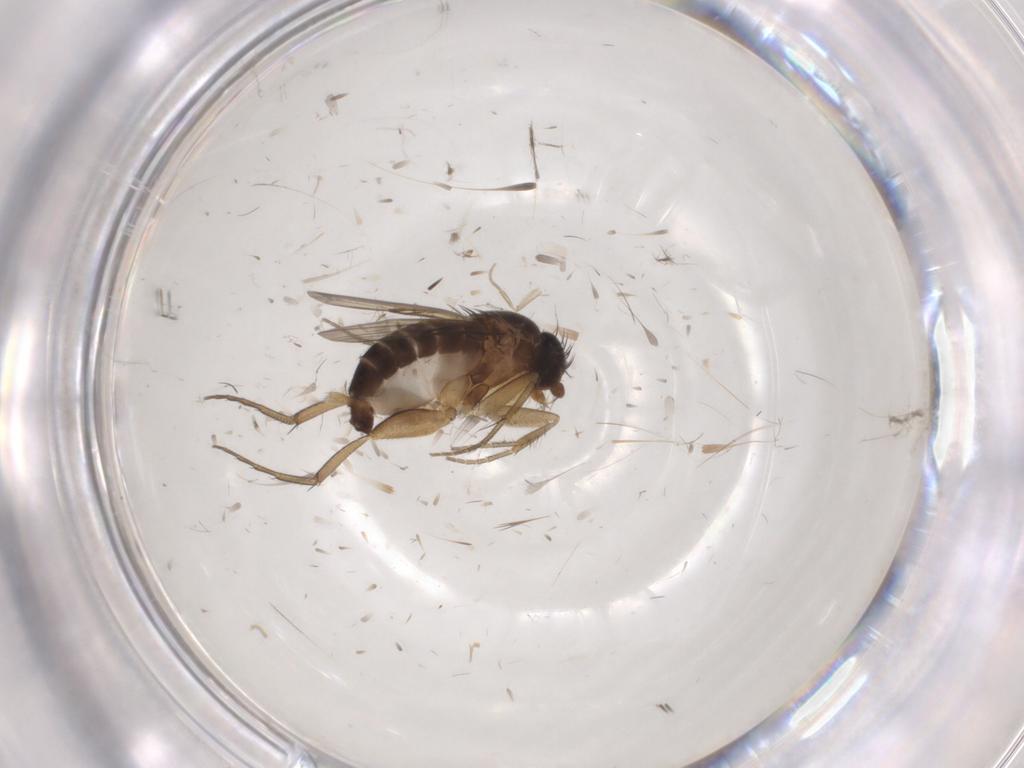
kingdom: Animalia
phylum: Arthropoda
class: Insecta
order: Diptera
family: Phoridae
